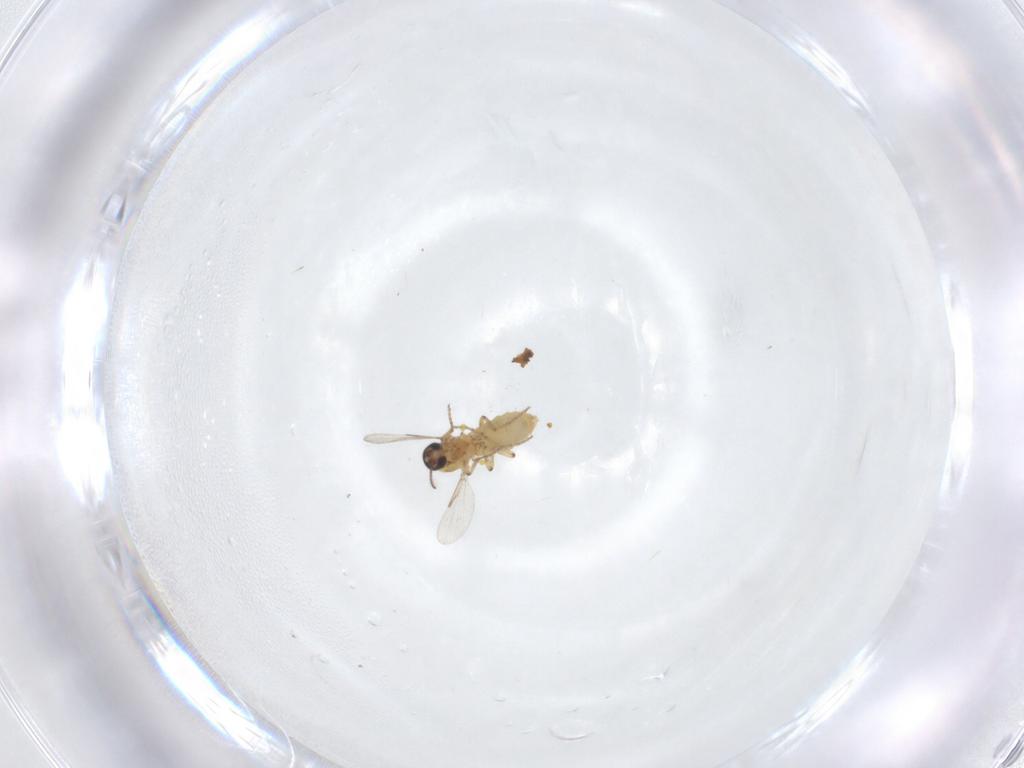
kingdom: Animalia
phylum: Arthropoda
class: Insecta
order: Diptera
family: Ceratopogonidae
